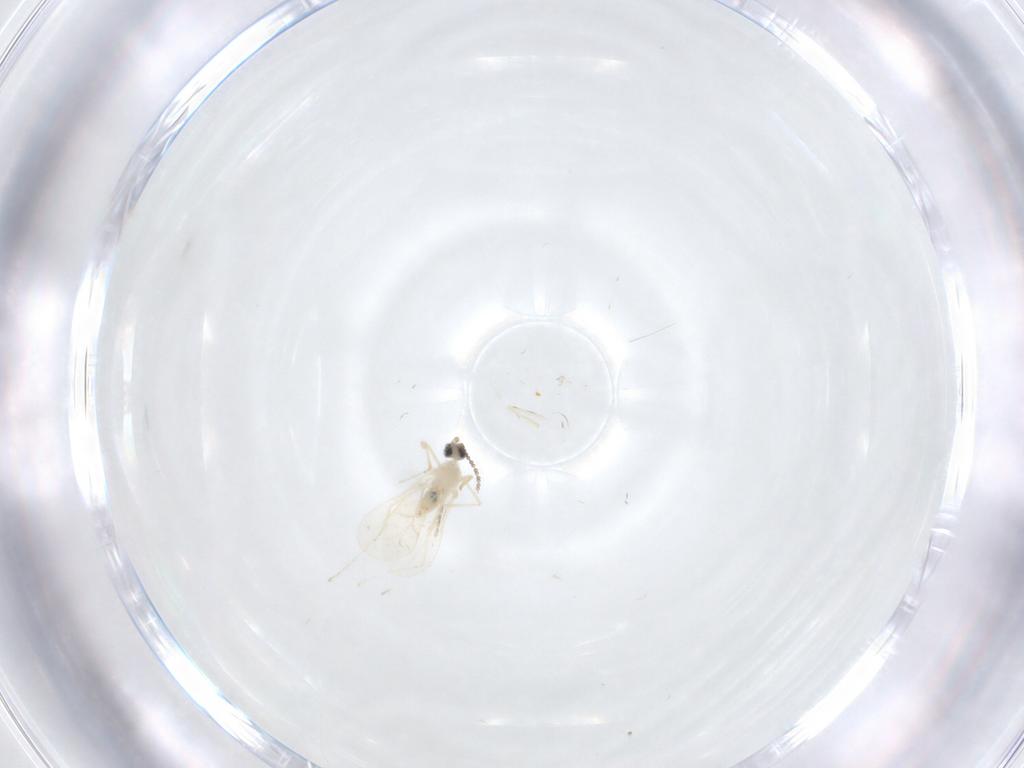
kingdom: Animalia
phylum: Arthropoda
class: Insecta
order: Diptera
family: Cecidomyiidae
